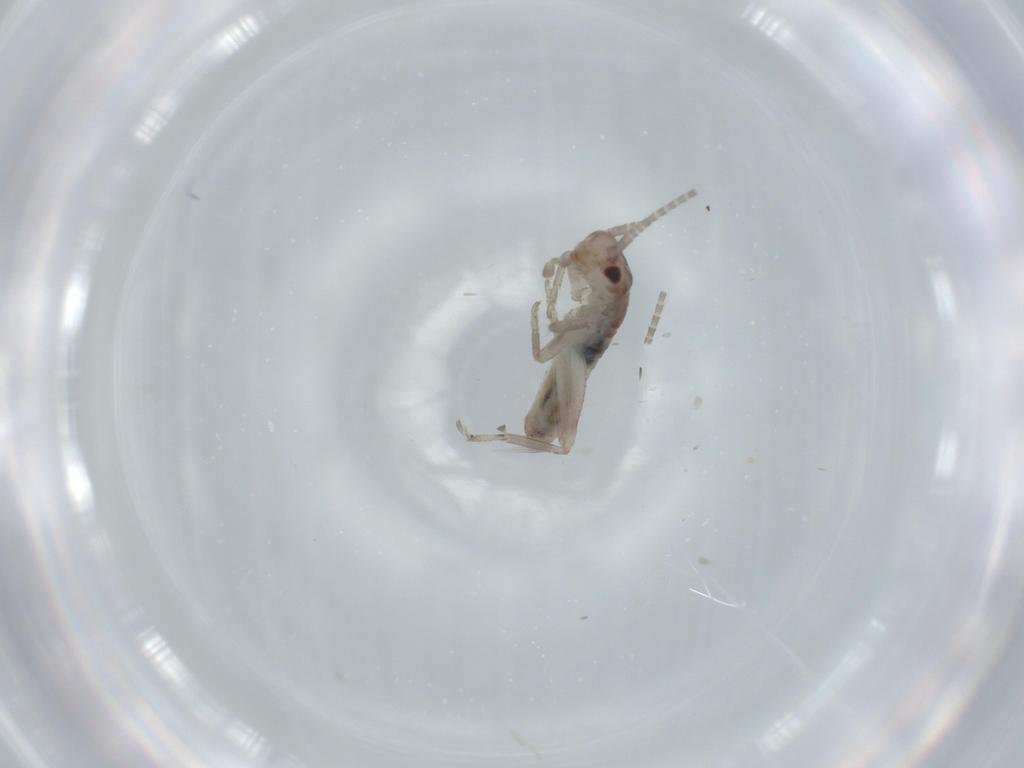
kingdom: Animalia
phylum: Arthropoda
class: Insecta
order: Orthoptera
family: Mogoplistidae
